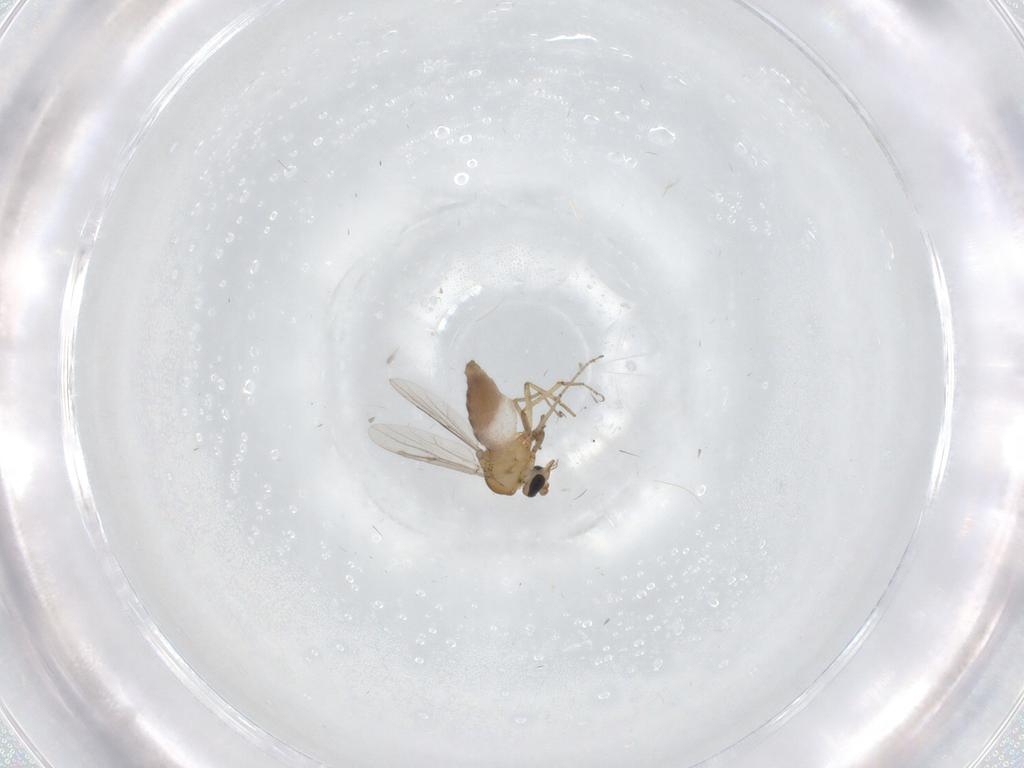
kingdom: Animalia
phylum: Arthropoda
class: Insecta
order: Diptera
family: Ceratopogonidae
